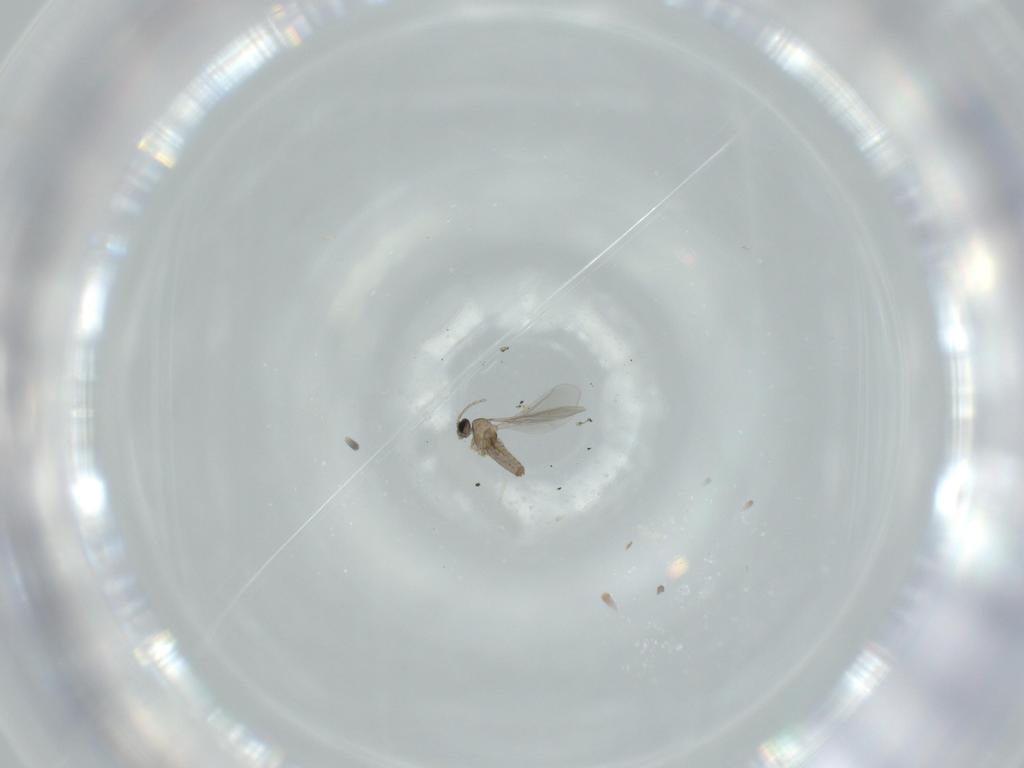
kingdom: Animalia
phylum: Arthropoda
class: Insecta
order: Diptera
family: Cecidomyiidae
